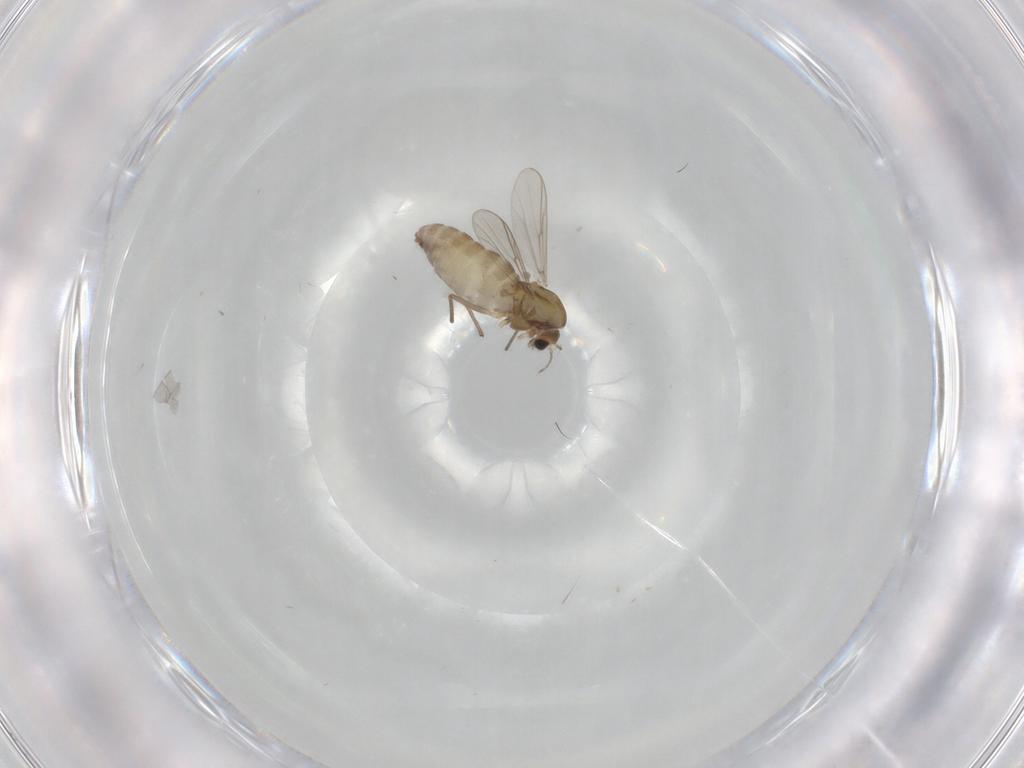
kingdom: Animalia
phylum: Arthropoda
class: Insecta
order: Diptera
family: Chironomidae
